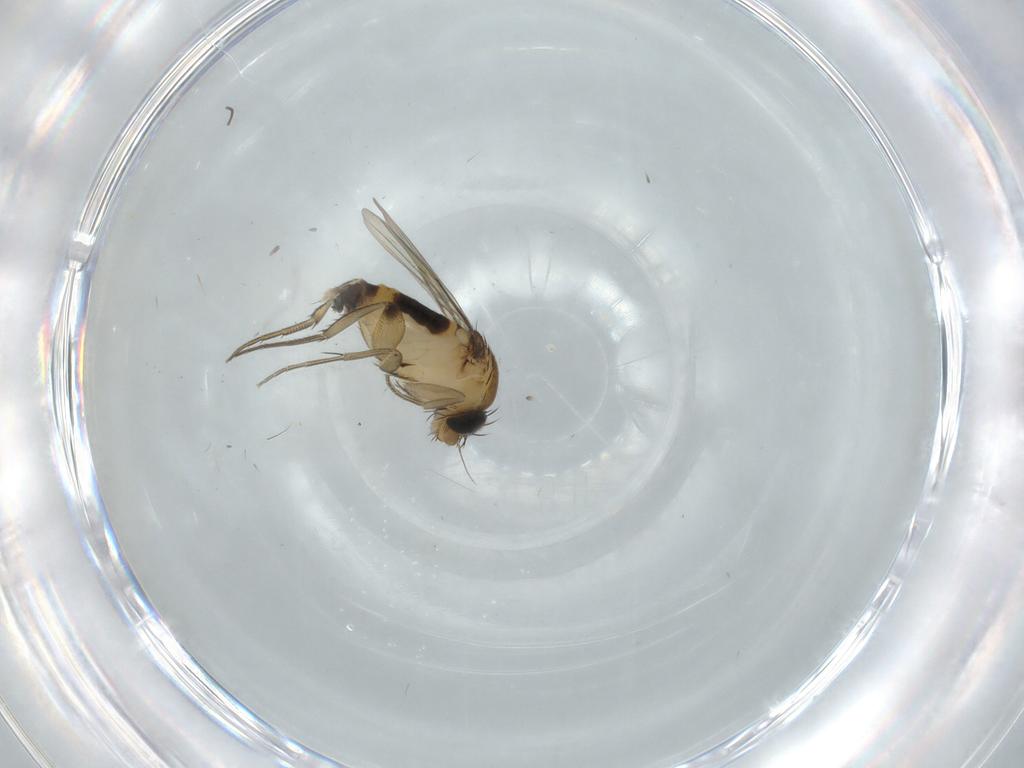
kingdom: Animalia
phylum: Arthropoda
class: Insecta
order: Diptera
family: Phoridae
